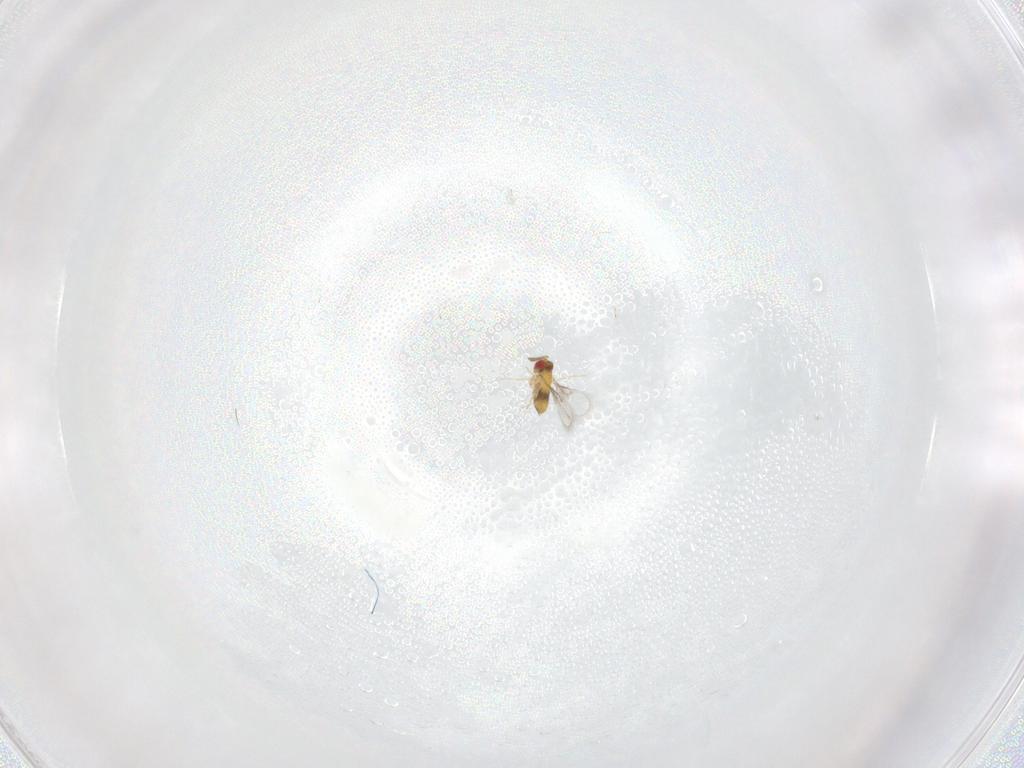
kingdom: Animalia
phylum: Arthropoda
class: Insecta
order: Hymenoptera
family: Trichogrammatidae
